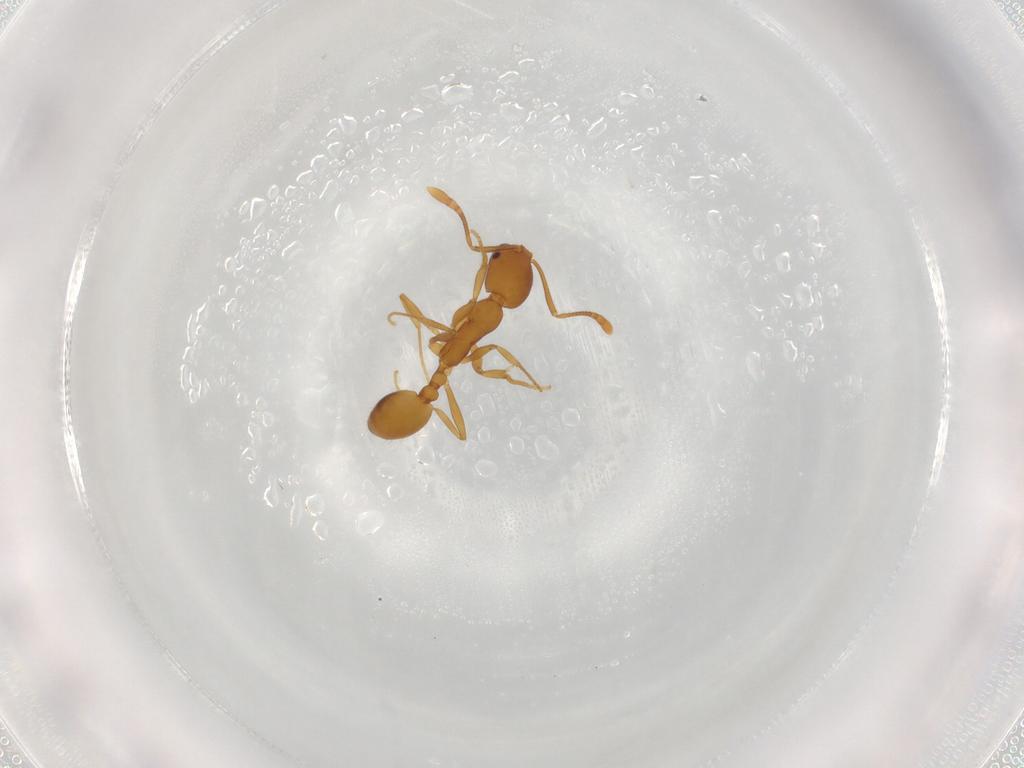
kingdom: Animalia
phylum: Arthropoda
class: Insecta
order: Hymenoptera
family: Formicidae
